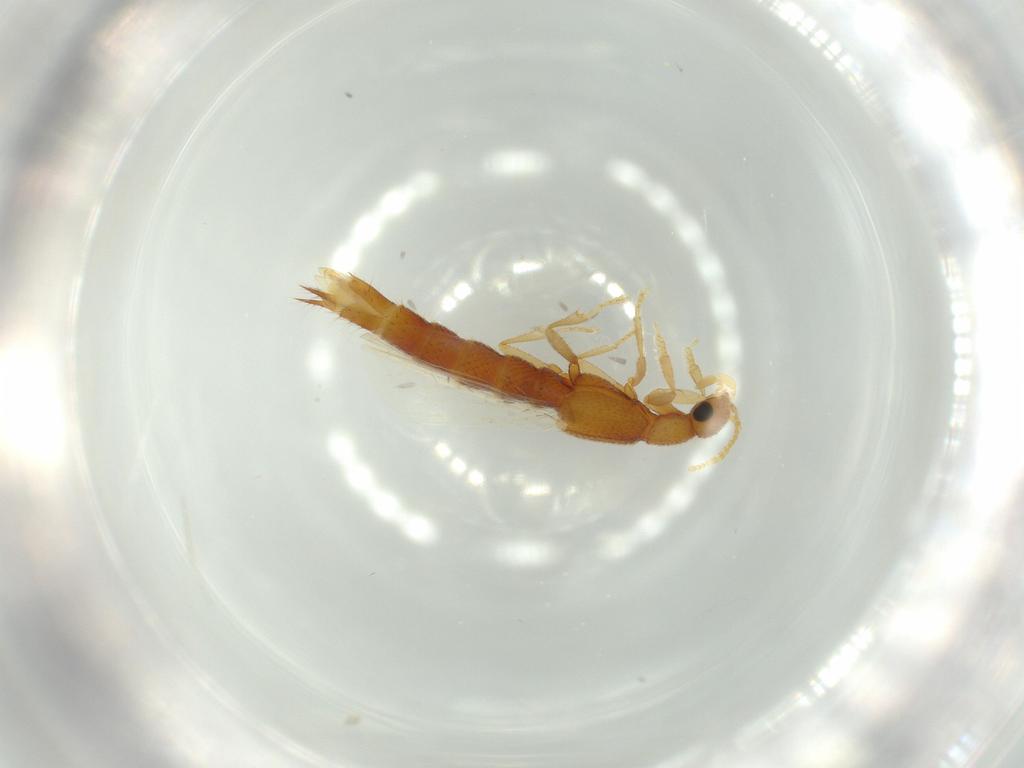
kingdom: Animalia
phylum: Arthropoda
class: Insecta
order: Coleoptera
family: Staphylinidae
